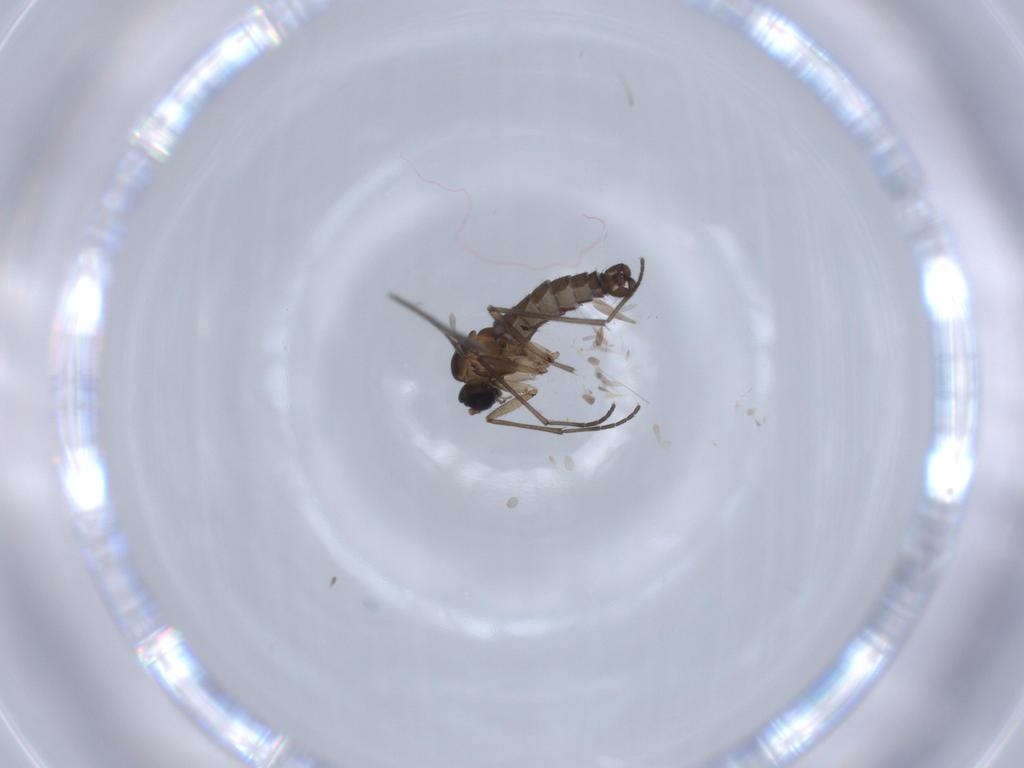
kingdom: Animalia
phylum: Arthropoda
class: Insecta
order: Diptera
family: Sciaridae
